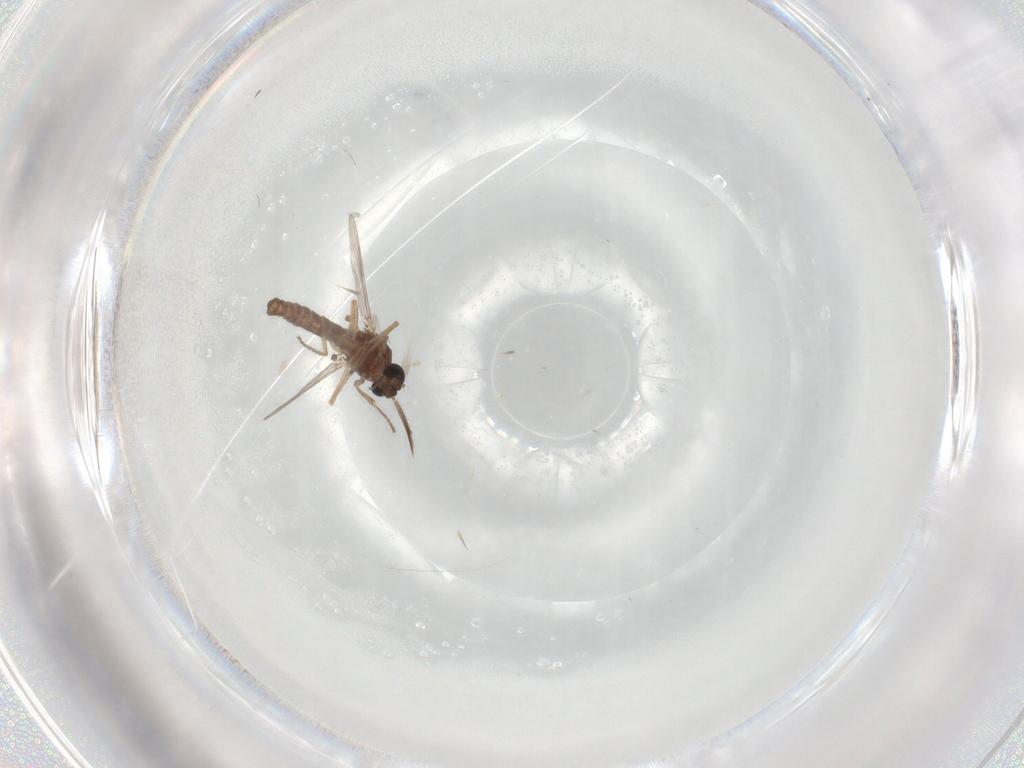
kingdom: Animalia
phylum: Arthropoda
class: Insecta
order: Diptera
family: Ceratopogonidae
